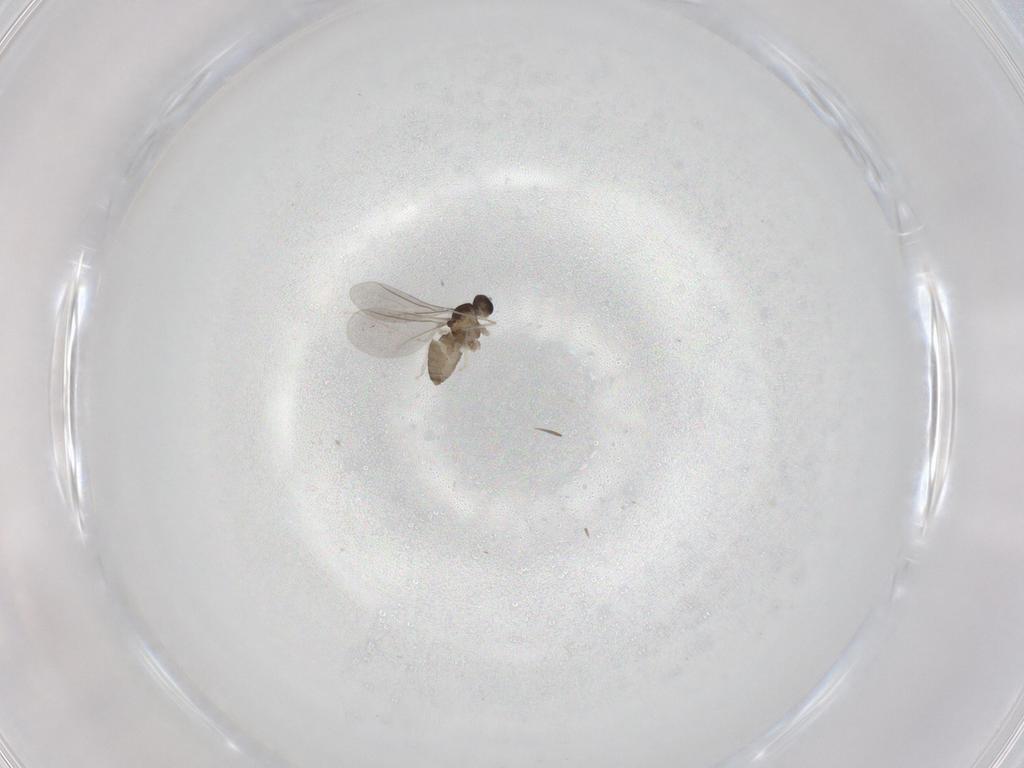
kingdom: Animalia
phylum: Arthropoda
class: Insecta
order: Diptera
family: Cecidomyiidae
